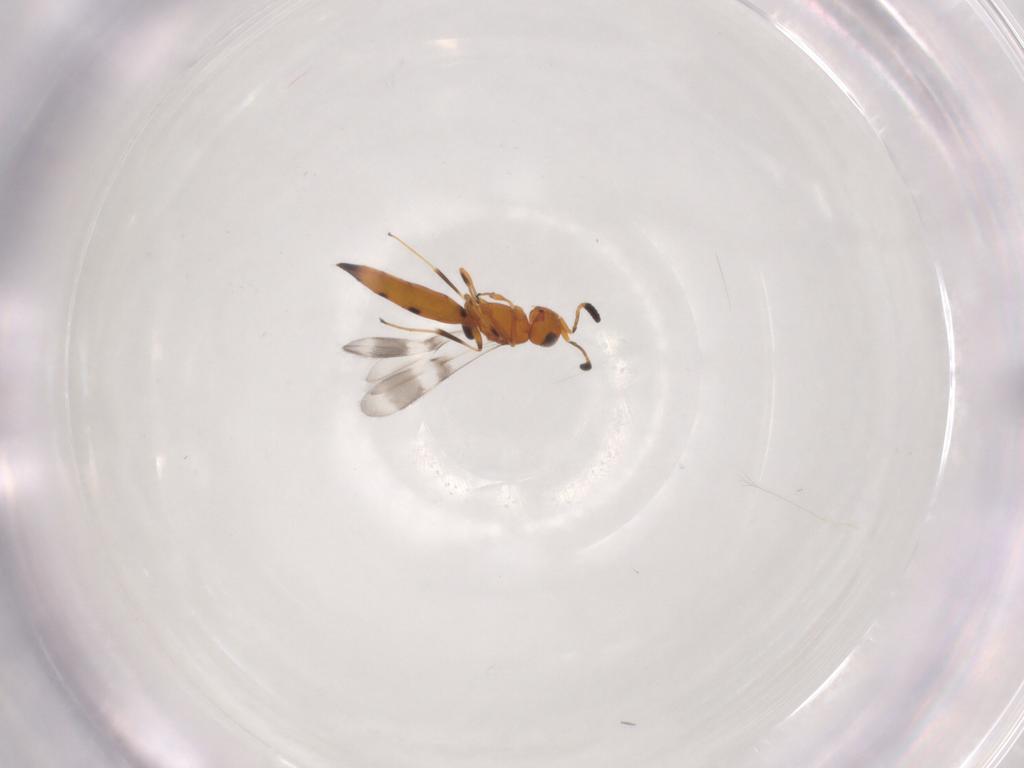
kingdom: Animalia
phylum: Arthropoda
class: Insecta
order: Hymenoptera
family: Scelionidae
